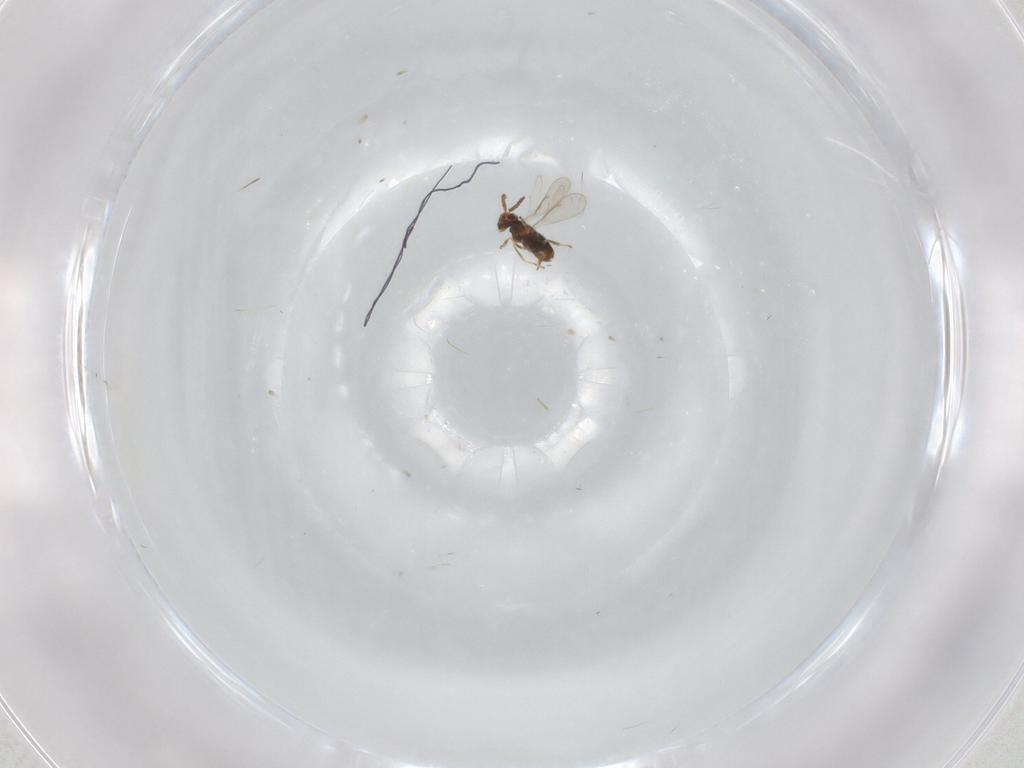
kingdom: Animalia
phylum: Arthropoda
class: Insecta
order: Hymenoptera
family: Aphelinidae
